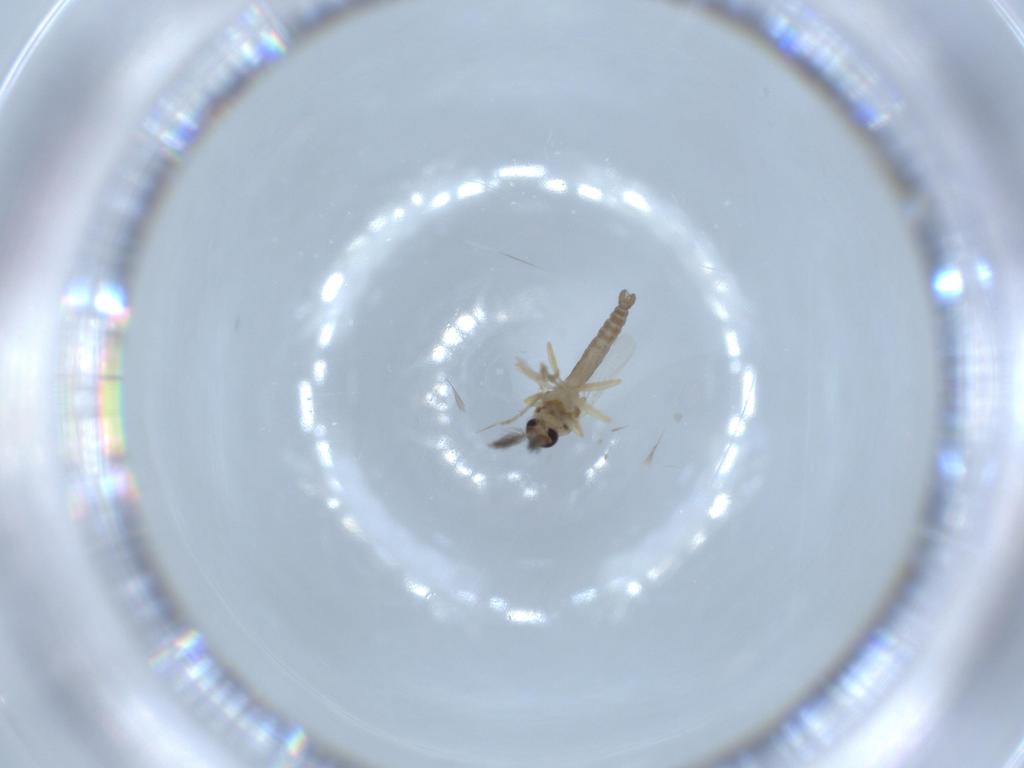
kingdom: Animalia
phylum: Arthropoda
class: Insecta
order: Diptera
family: Ceratopogonidae
